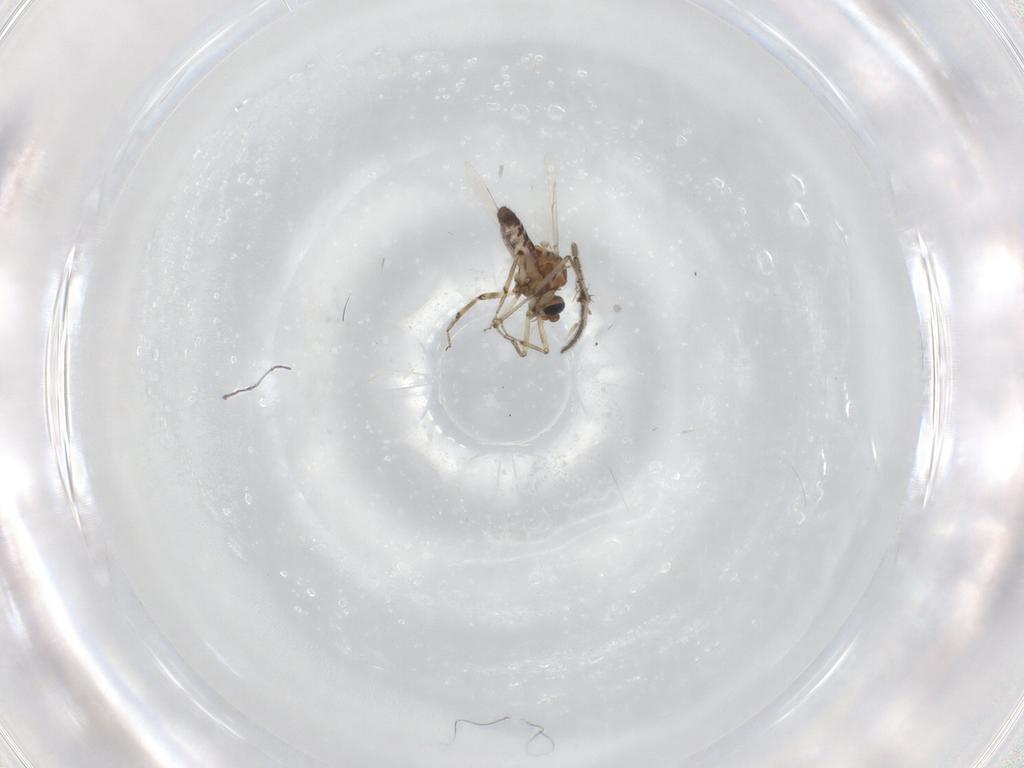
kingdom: Animalia
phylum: Arthropoda
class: Insecta
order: Diptera
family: Ceratopogonidae
